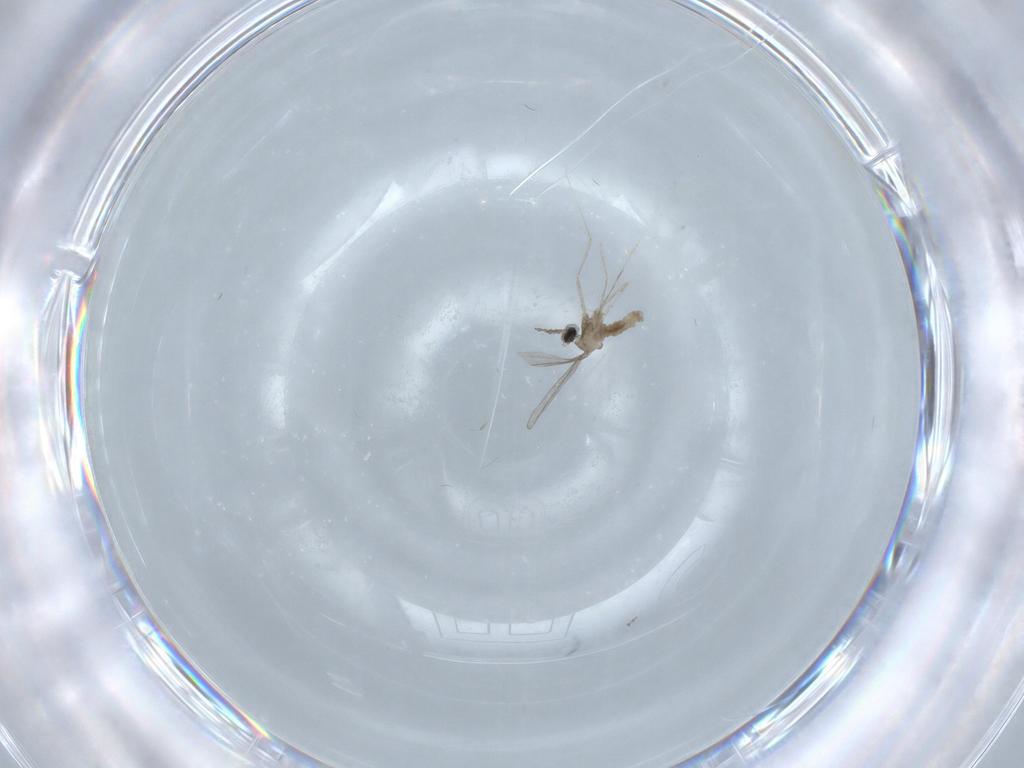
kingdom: Animalia
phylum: Arthropoda
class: Insecta
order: Diptera
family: Cecidomyiidae
